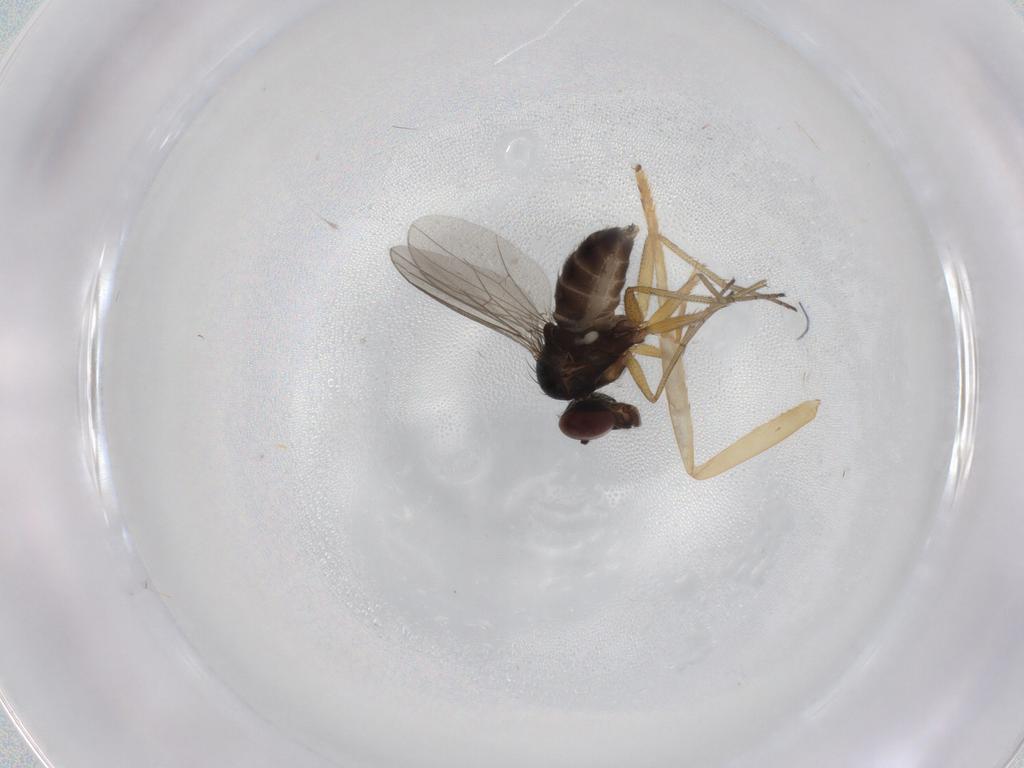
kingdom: Animalia
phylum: Arthropoda
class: Insecta
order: Diptera
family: Dolichopodidae
